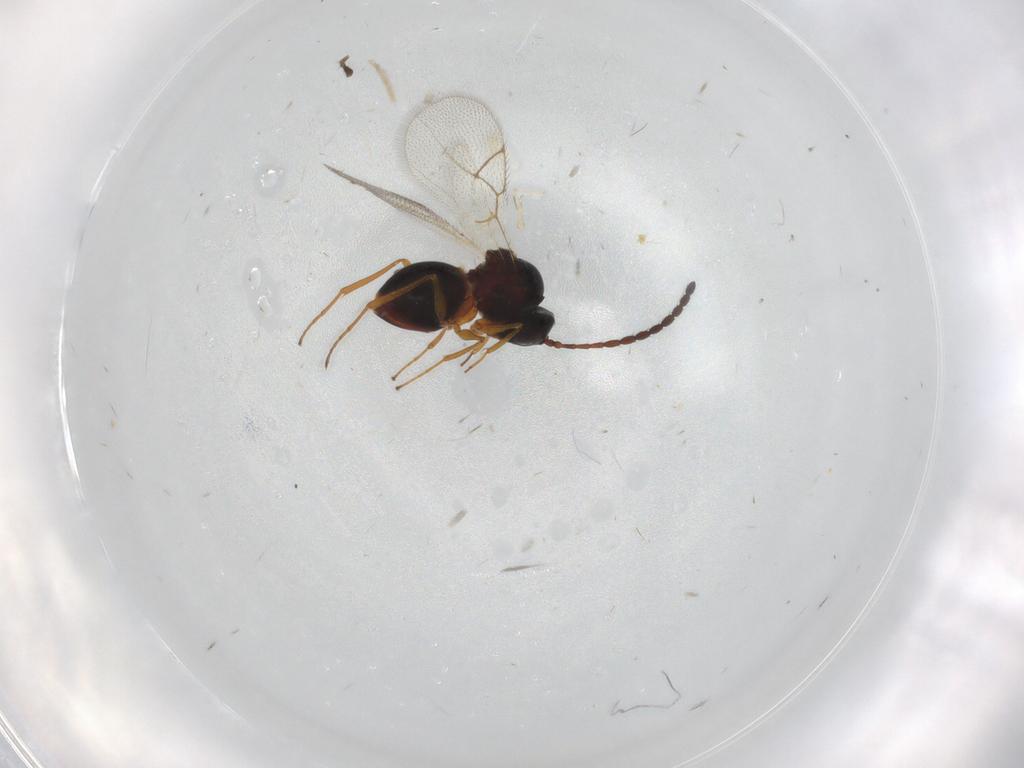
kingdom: Animalia
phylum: Arthropoda
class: Insecta
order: Hymenoptera
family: Figitidae
